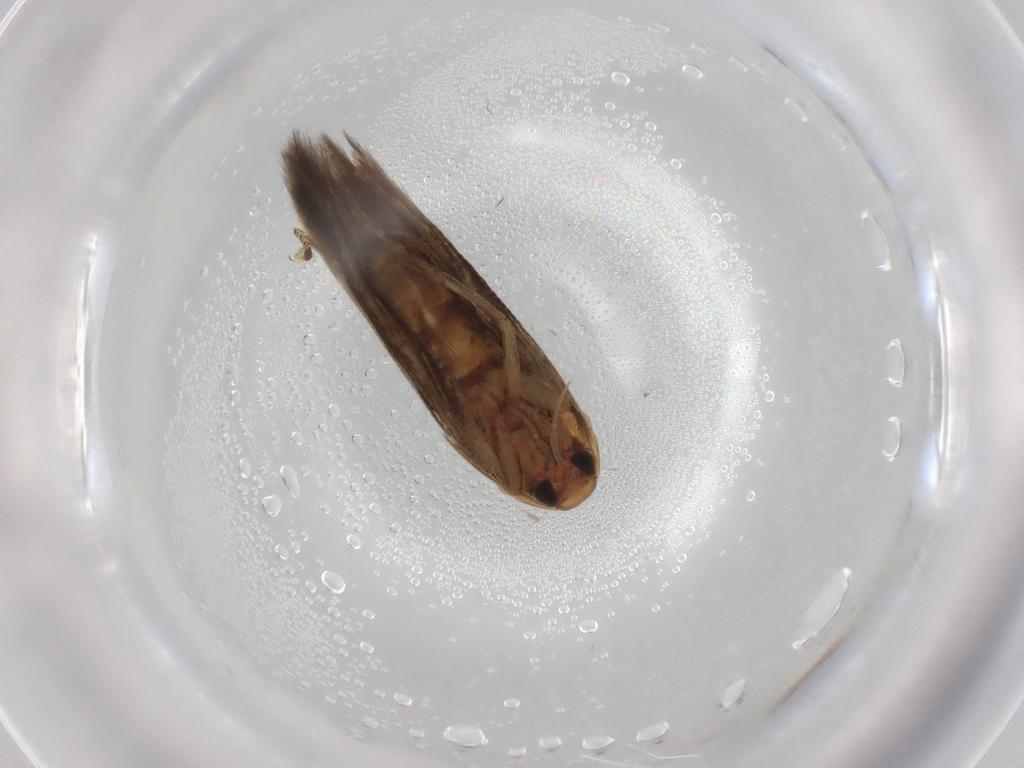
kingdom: Animalia
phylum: Arthropoda
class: Insecta
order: Lepidoptera
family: Cosmopterigidae
